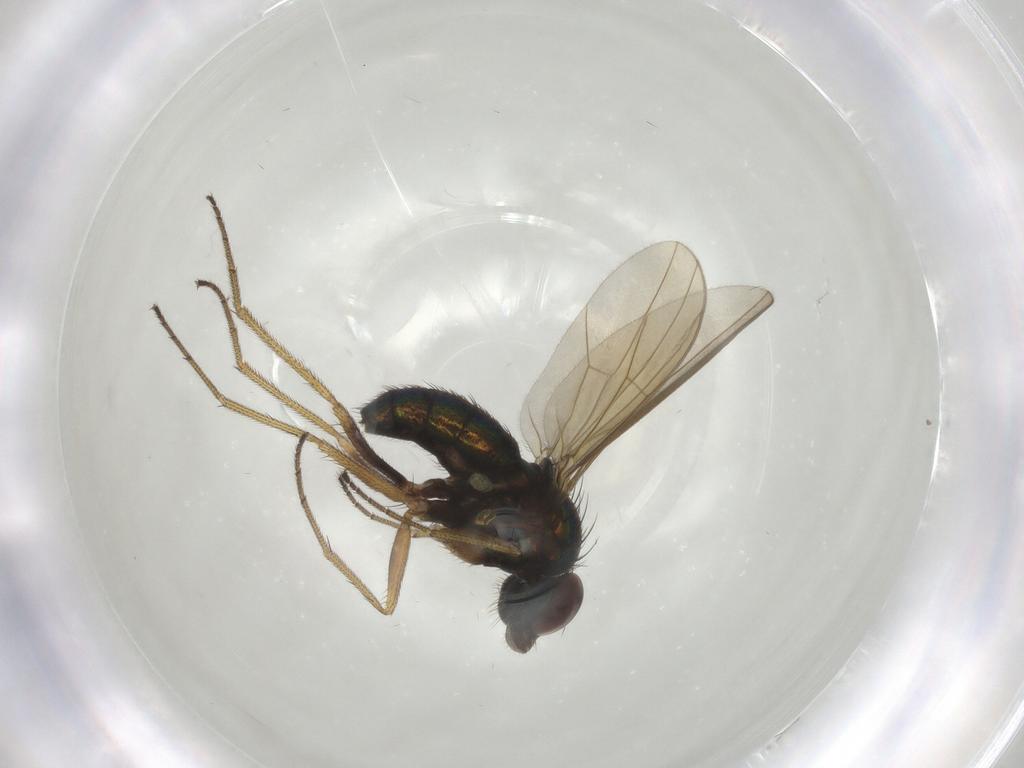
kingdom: Animalia
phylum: Arthropoda
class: Insecta
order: Diptera
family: Dolichopodidae
